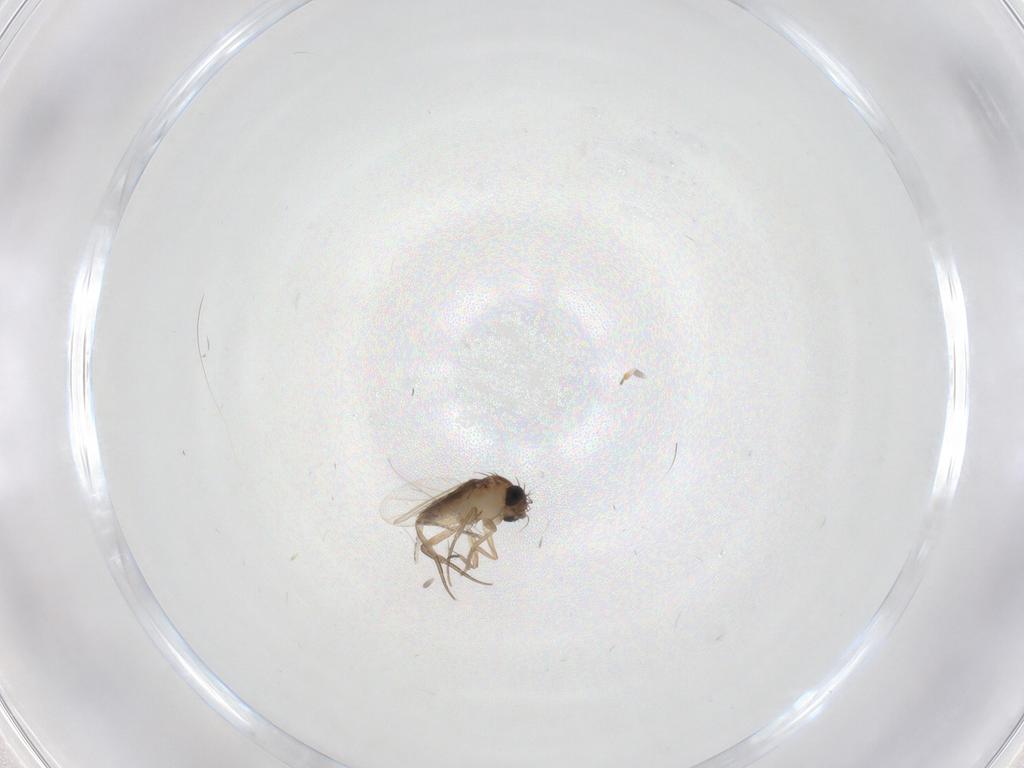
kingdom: Animalia
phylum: Arthropoda
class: Insecta
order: Diptera
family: Phoridae
